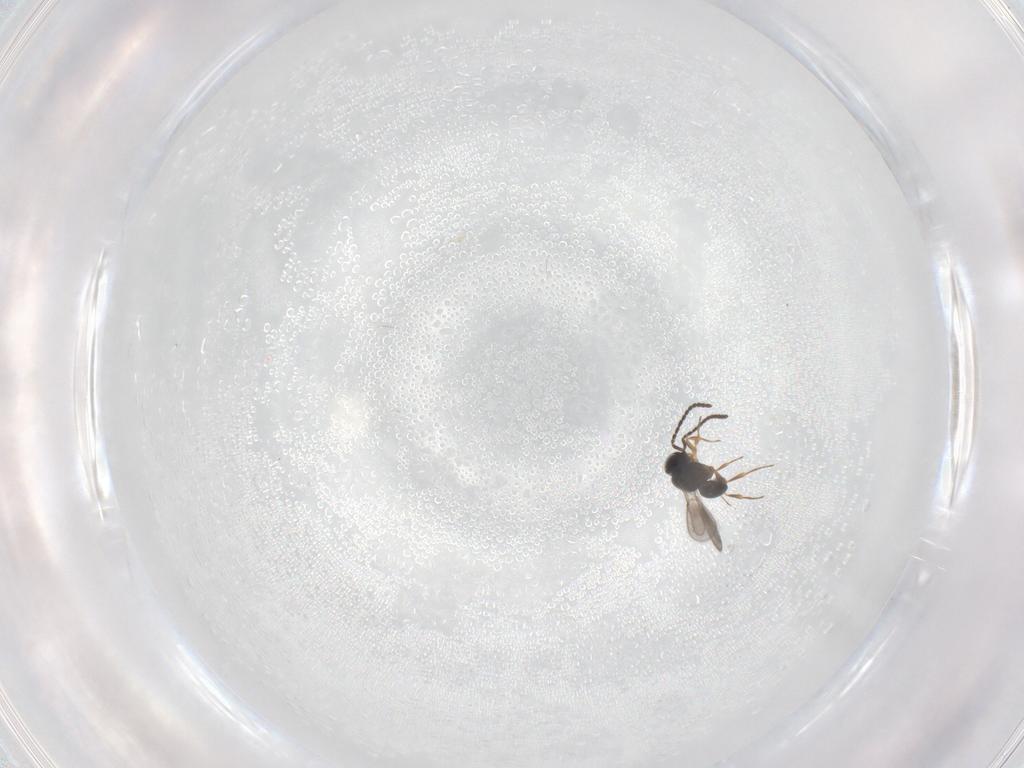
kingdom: Animalia
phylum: Arthropoda
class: Insecta
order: Hymenoptera
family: Scelionidae
